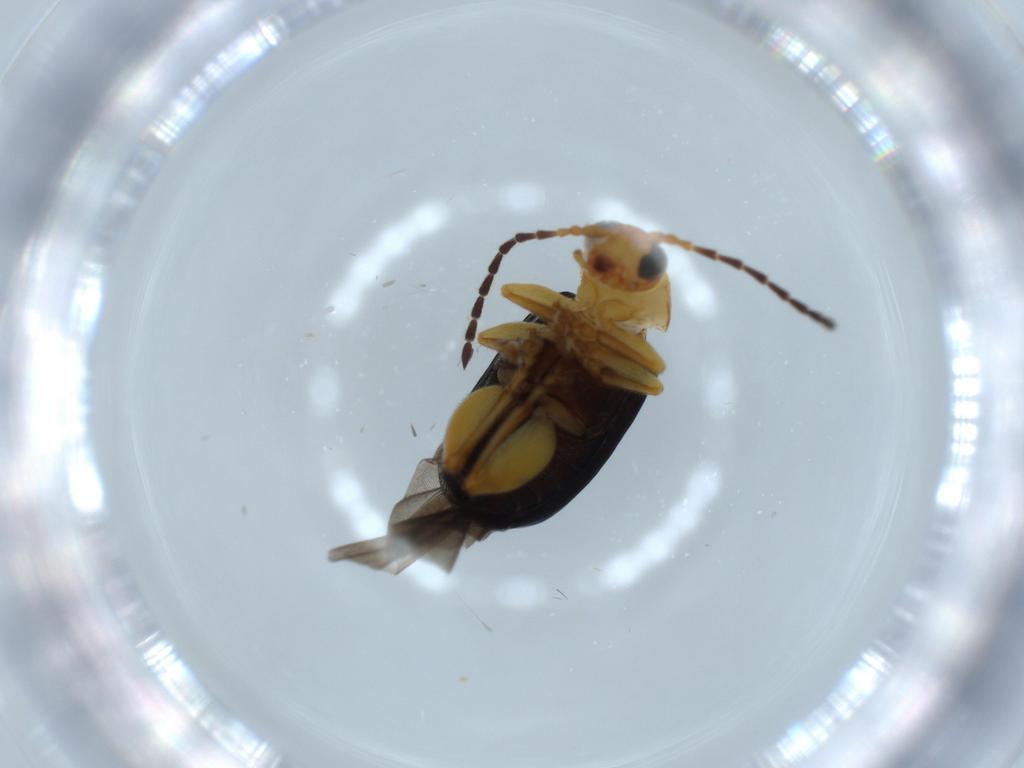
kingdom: Animalia
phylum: Arthropoda
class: Insecta
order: Coleoptera
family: Chrysomelidae
